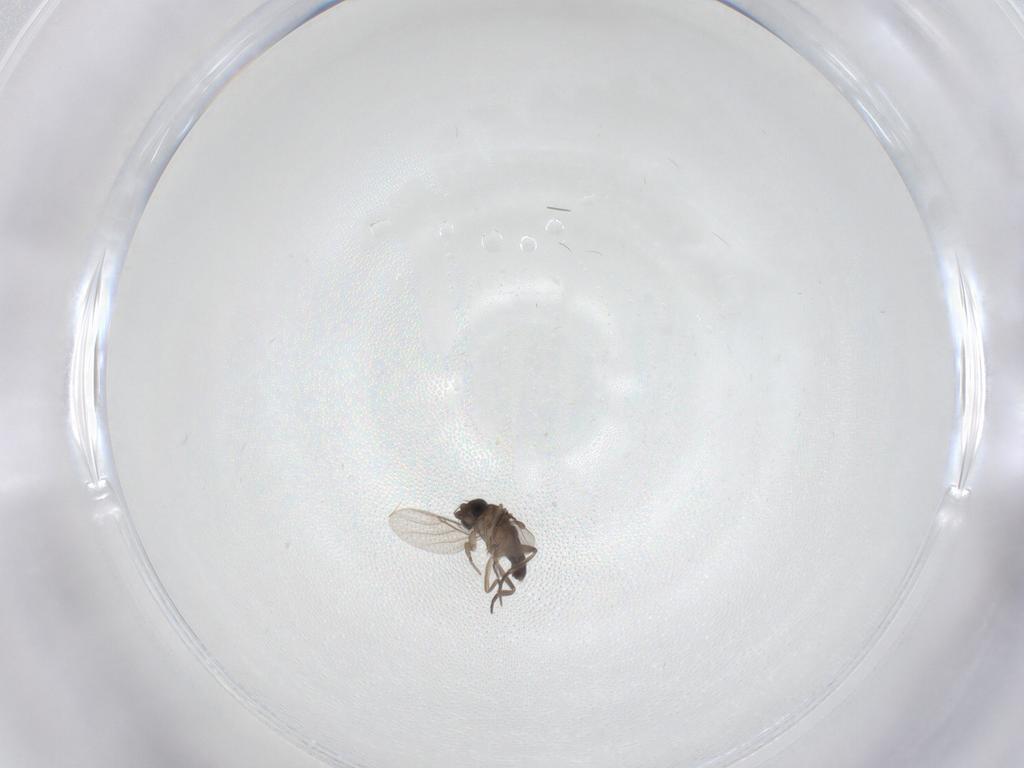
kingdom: Animalia
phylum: Arthropoda
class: Insecta
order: Diptera
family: Phoridae
